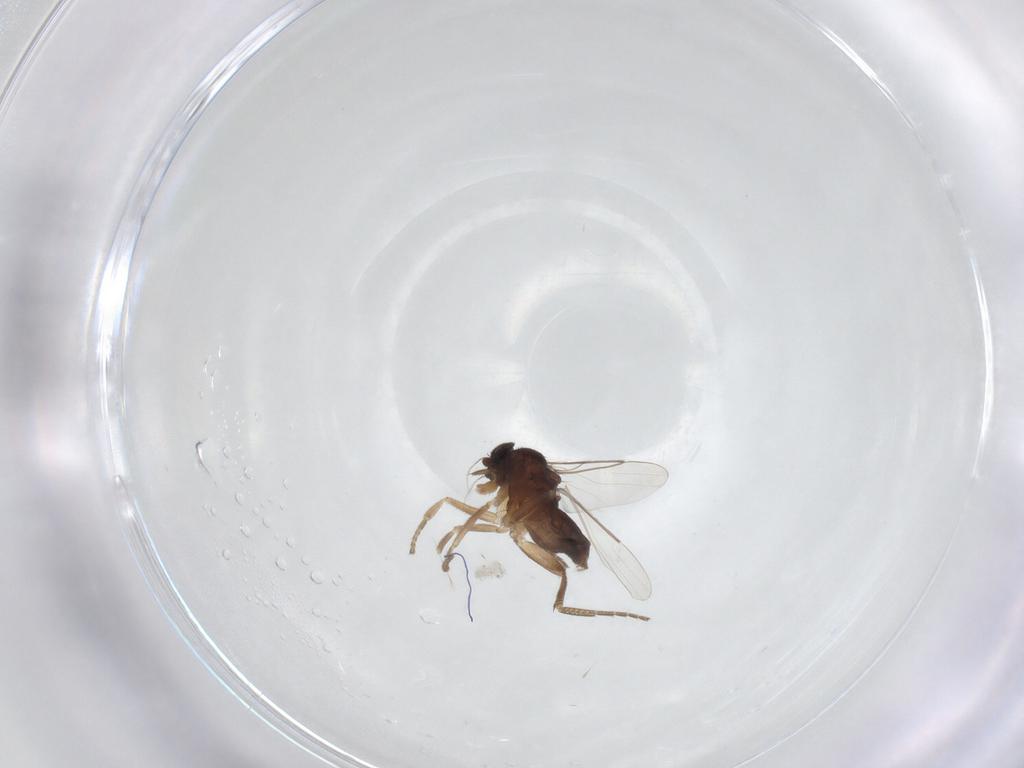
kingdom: Animalia
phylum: Arthropoda
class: Insecta
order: Diptera
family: Phoridae
